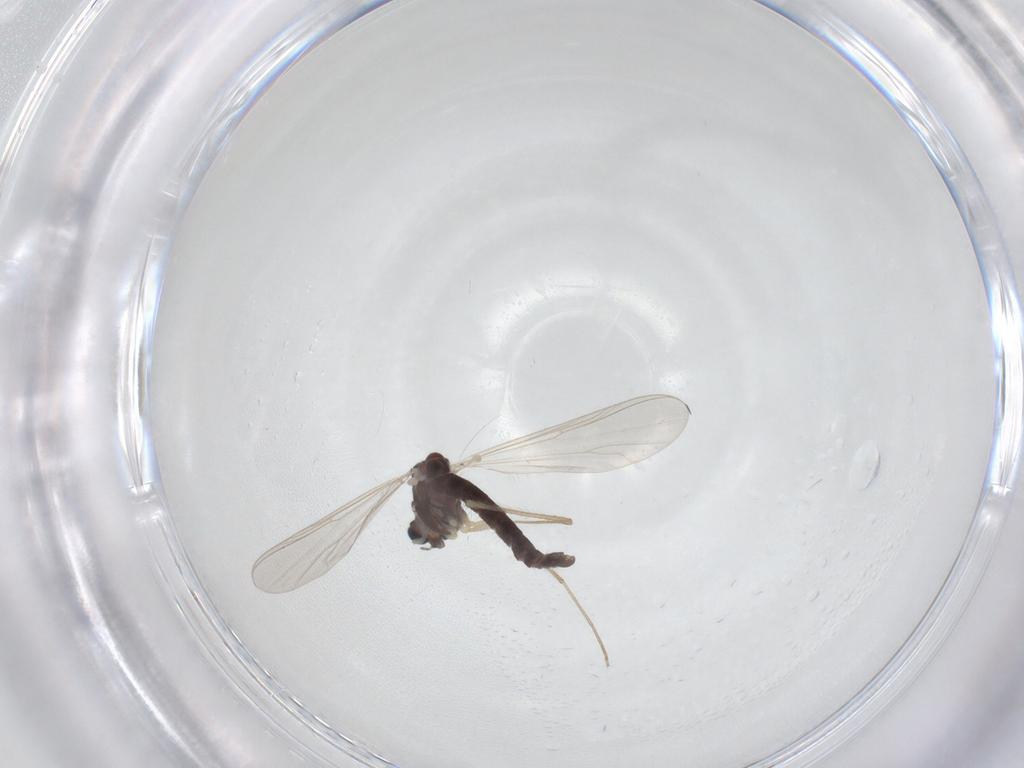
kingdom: Animalia
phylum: Arthropoda
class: Insecta
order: Diptera
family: Chironomidae
